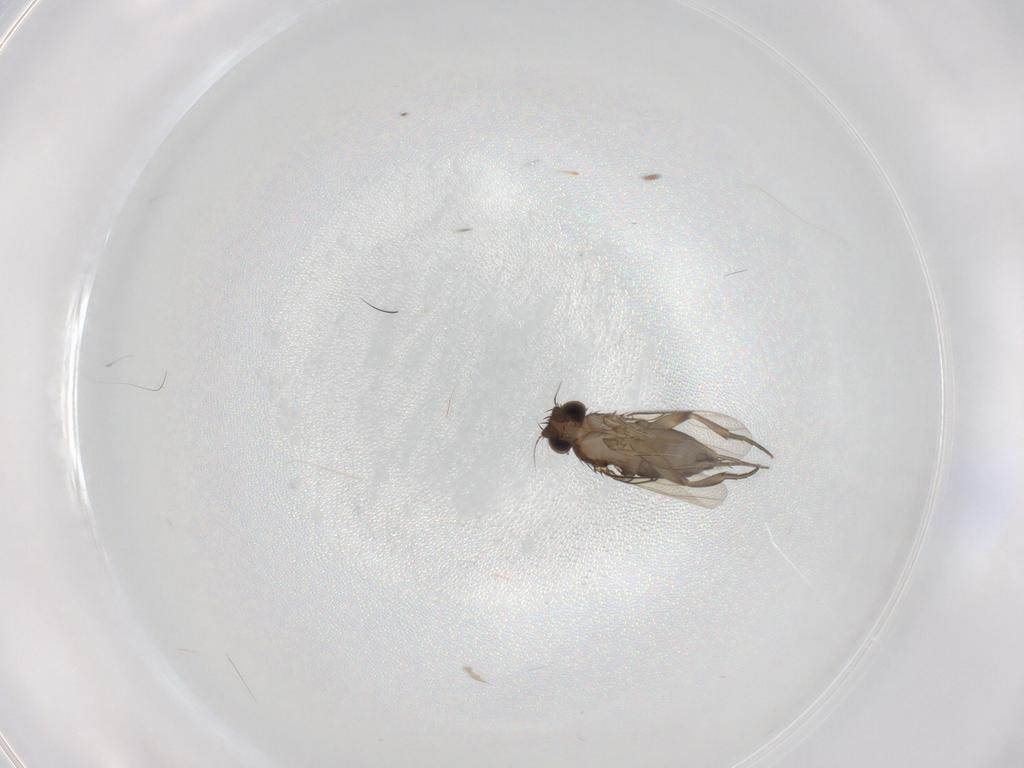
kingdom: Animalia
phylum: Arthropoda
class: Insecta
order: Diptera
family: Phoridae
